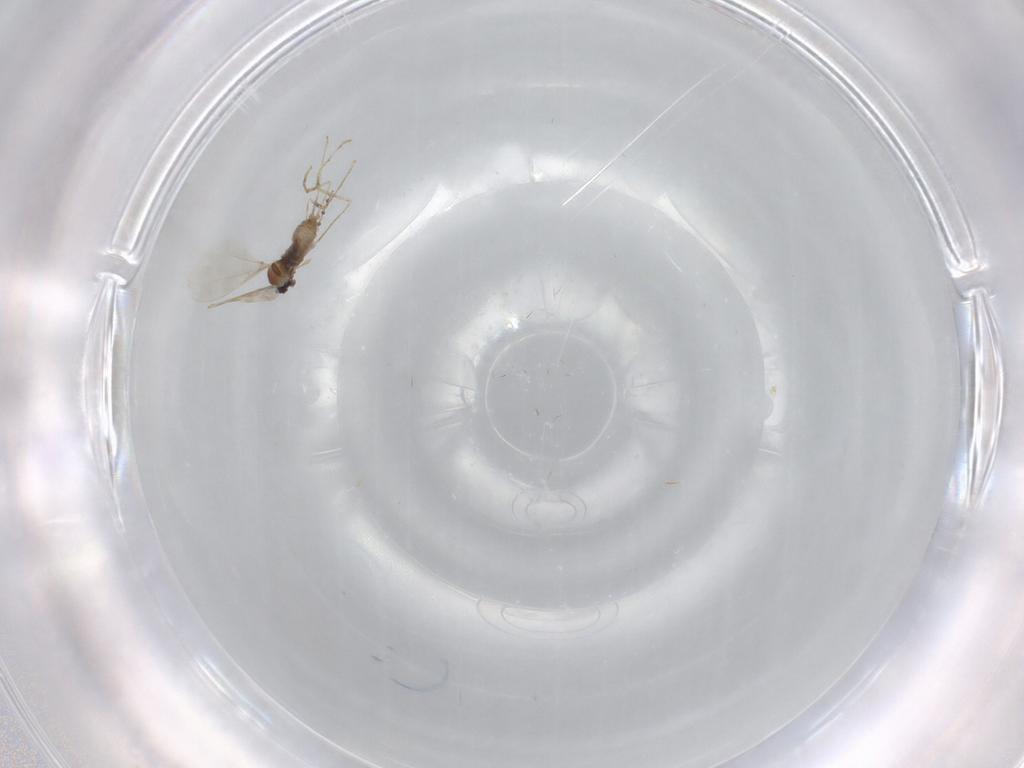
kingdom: Animalia
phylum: Arthropoda
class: Insecta
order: Diptera
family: Cecidomyiidae
